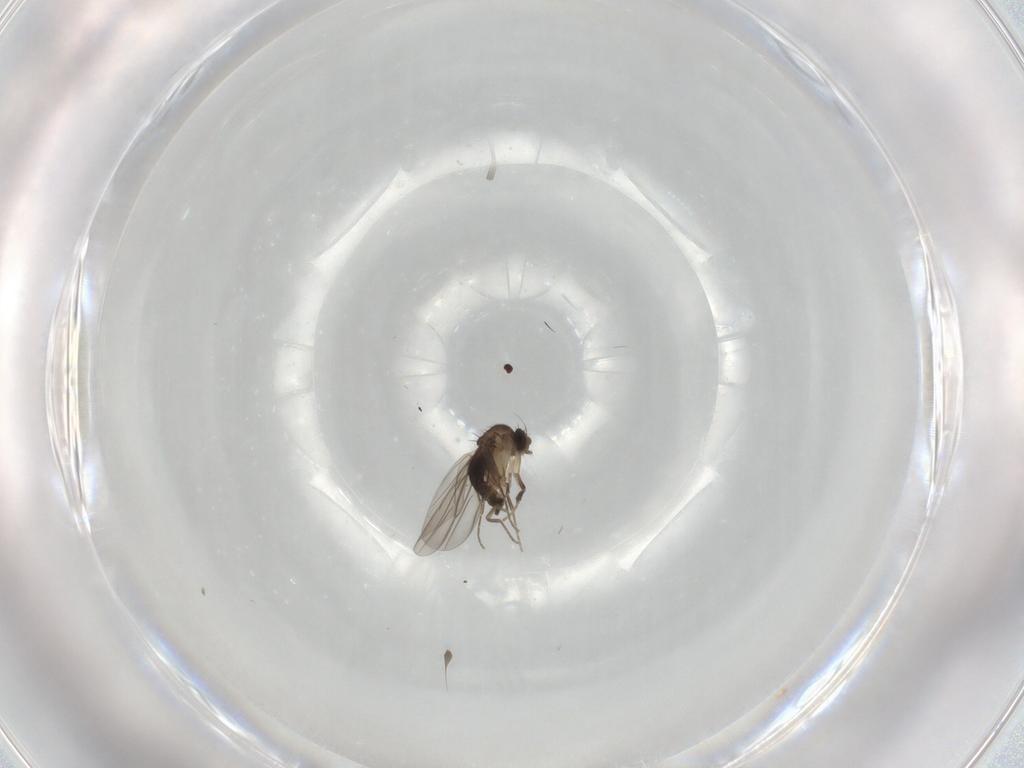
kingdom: Animalia
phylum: Arthropoda
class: Insecta
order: Diptera
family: Phoridae
